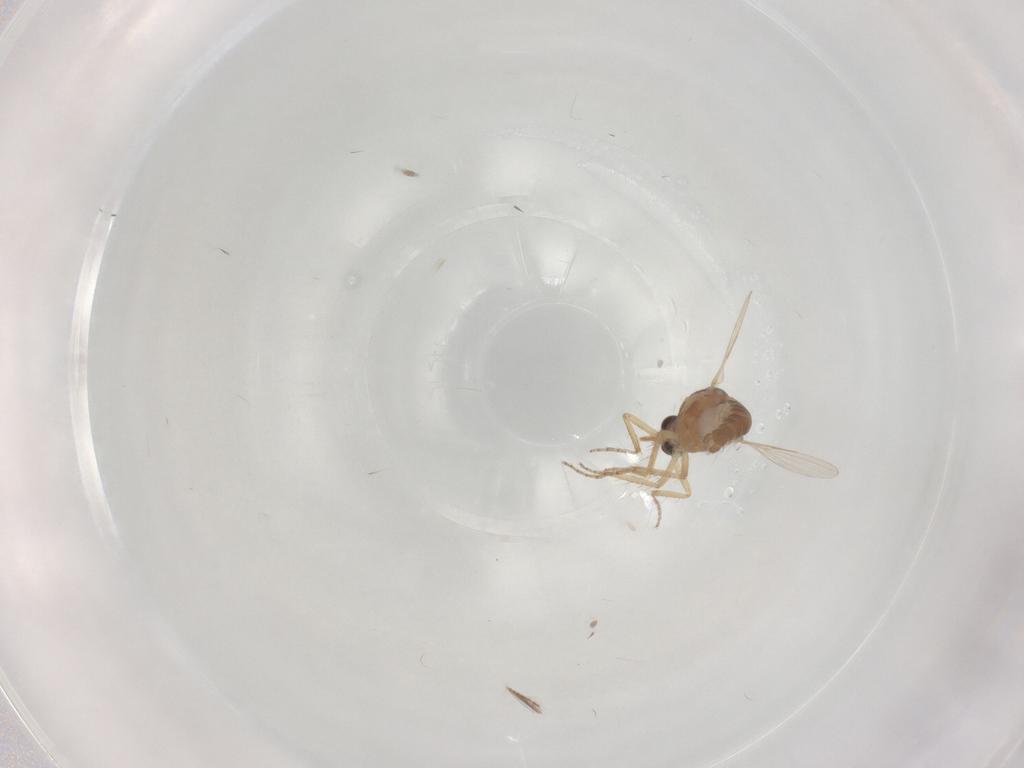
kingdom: Animalia
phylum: Arthropoda
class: Insecta
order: Diptera
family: Ceratopogonidae
